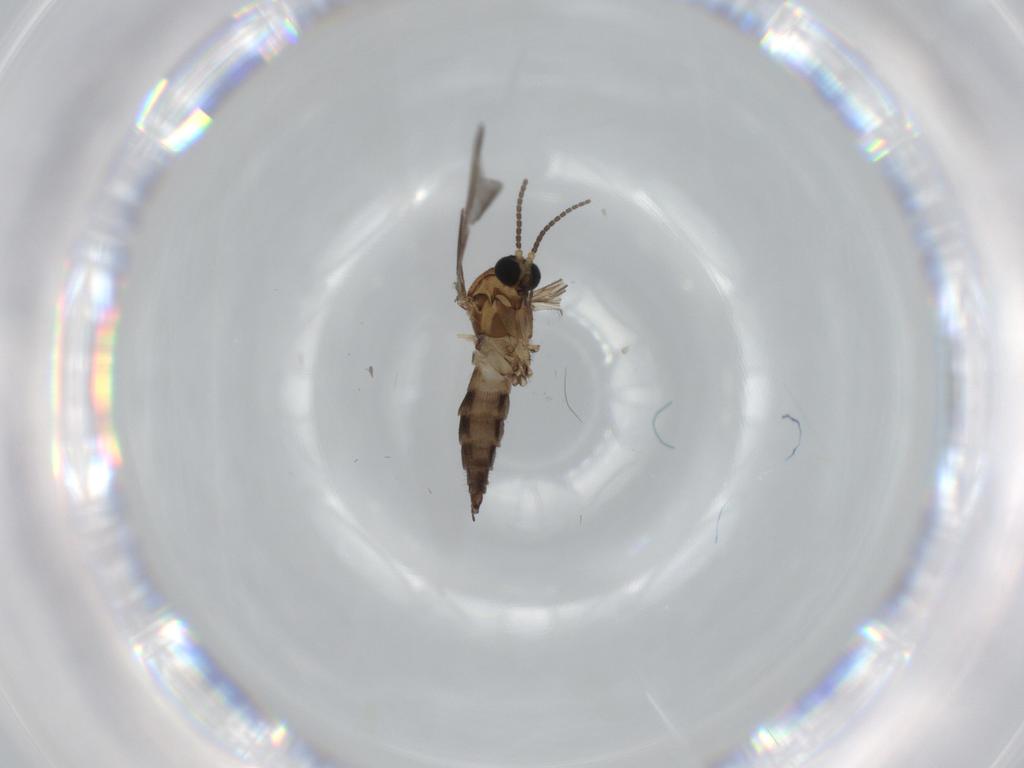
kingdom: Animalia
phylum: Arthropoda
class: Insecta
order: Diptera
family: Sciaridae
